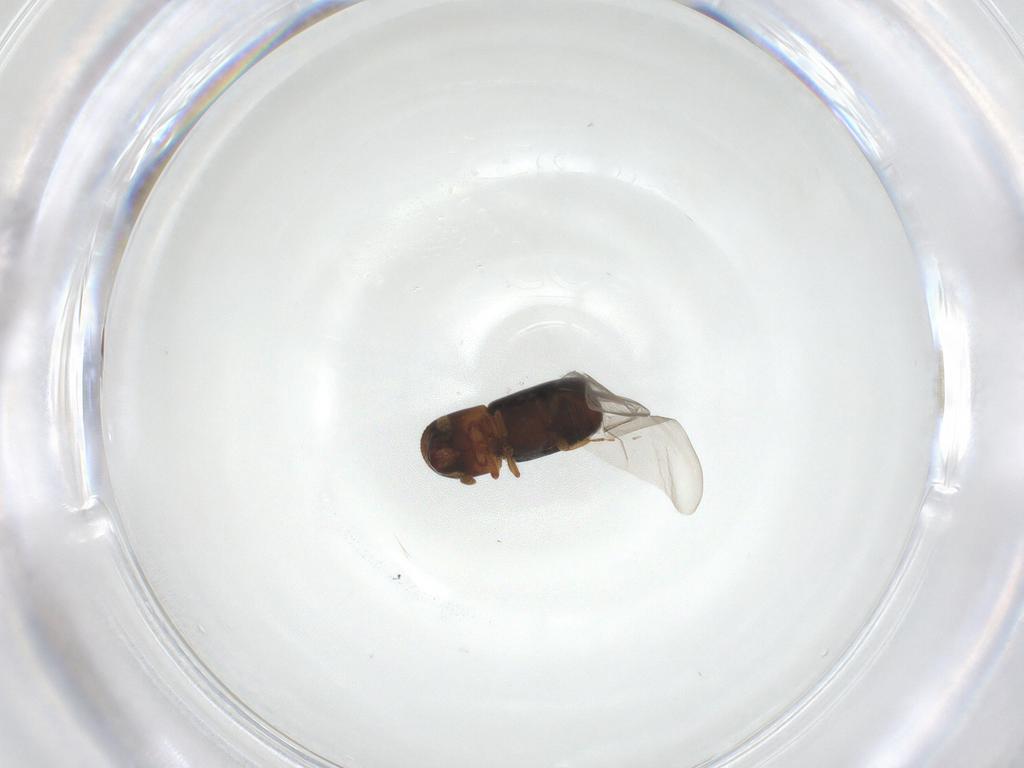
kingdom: Animalia
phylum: Arthropoda
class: Insecta
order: Coleoptera
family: Curculionidae
